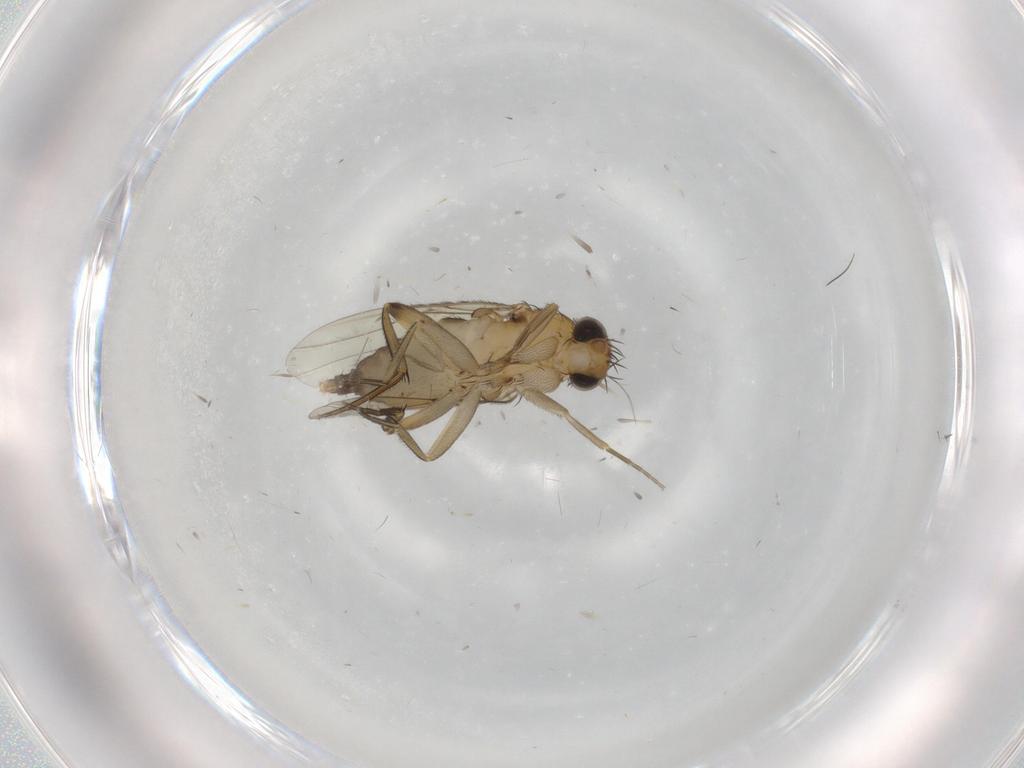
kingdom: Animalia
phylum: Arthropoda
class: Insecta
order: Diptera
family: Phoridae
